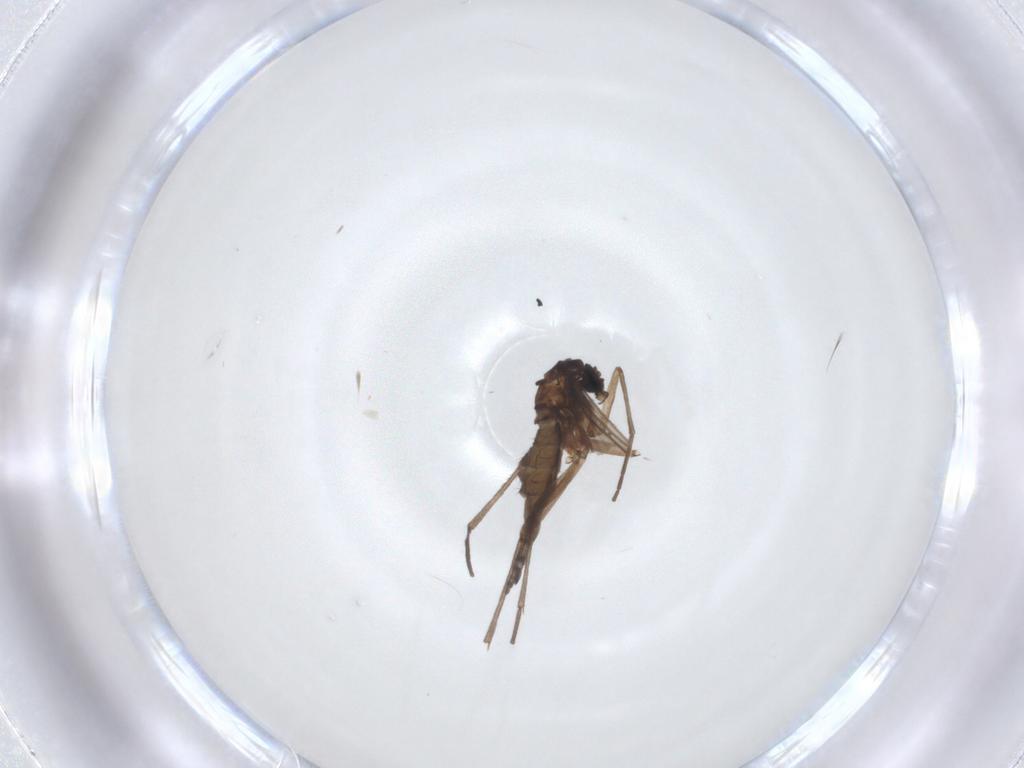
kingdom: Animalia
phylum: Arthropoda
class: Insecta
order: Diptera
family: Sciaridae
